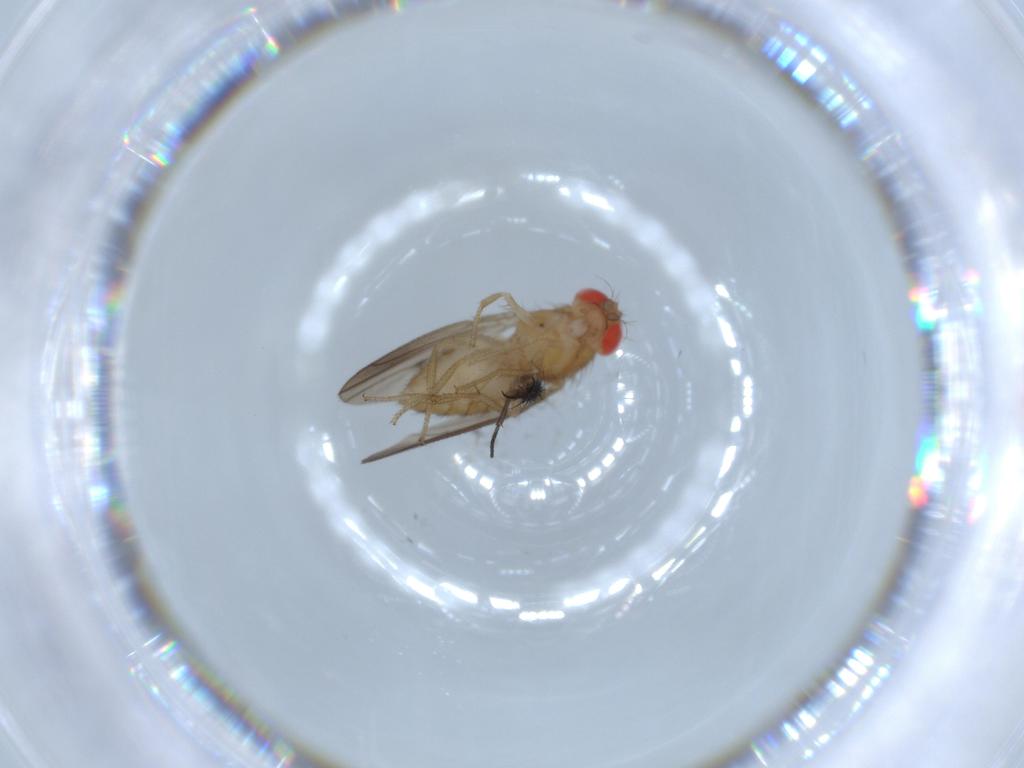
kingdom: Animalia
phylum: Arthropoda
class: Insecta
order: Diptera
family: Drosophilidae
